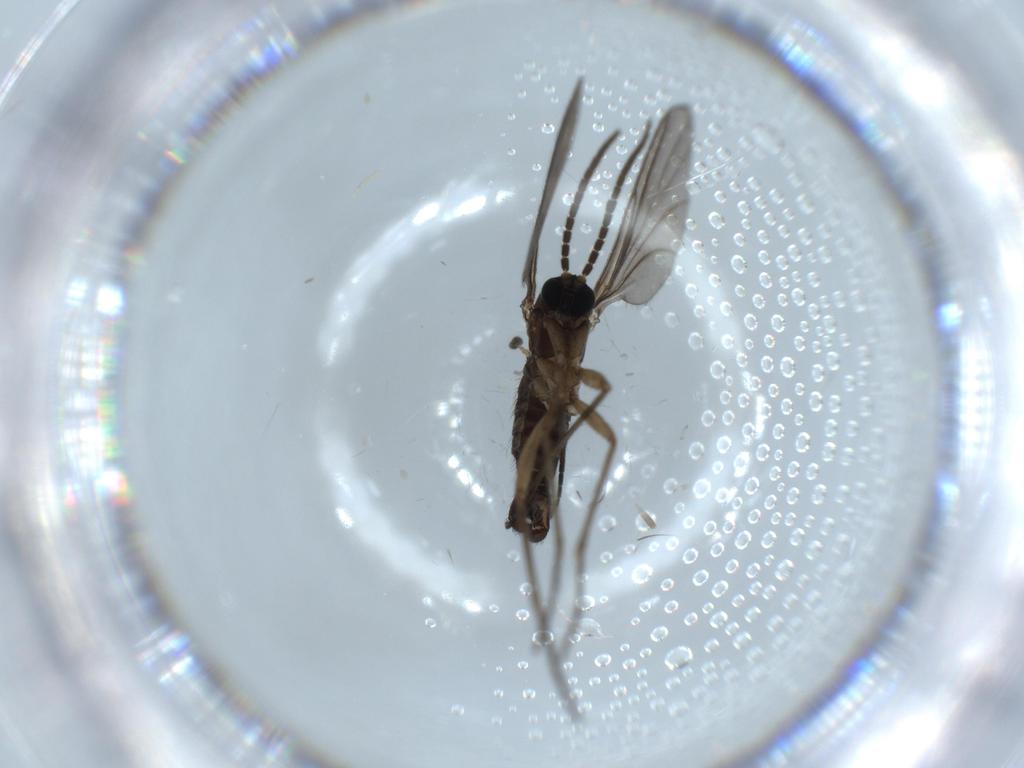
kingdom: Animalia
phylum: Arthropoda
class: Insecta
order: Diptera
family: Sciaridae
